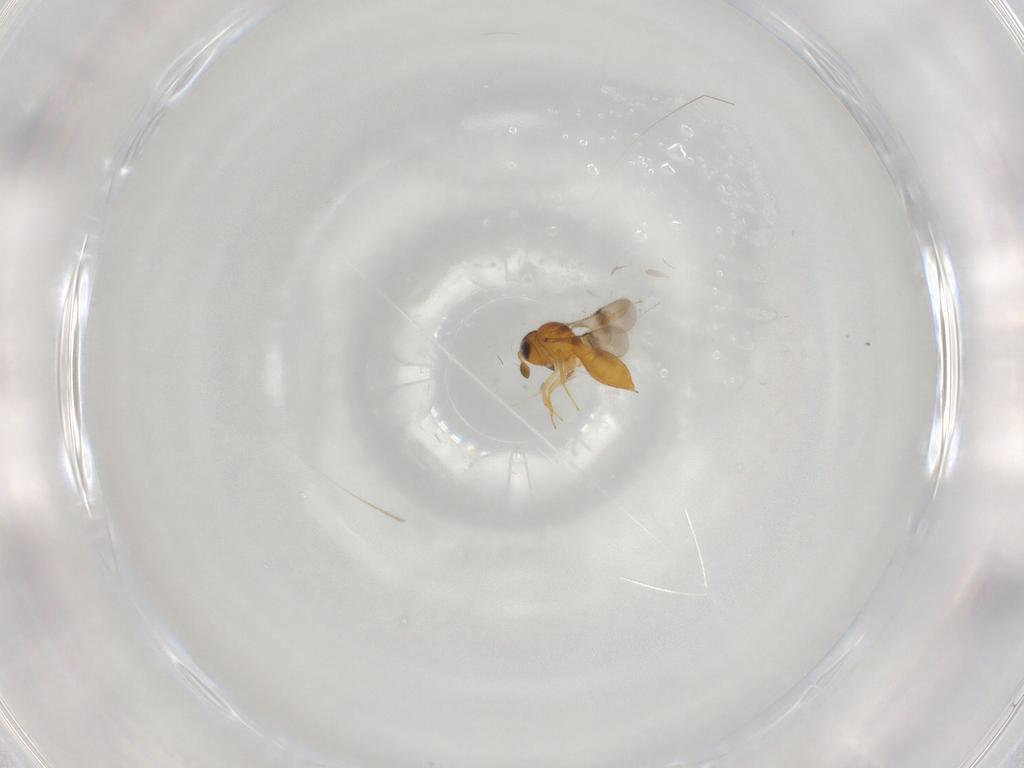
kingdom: Animalia
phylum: Arthropoda
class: Insecta
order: Hymenoptera
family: Scelionidae
